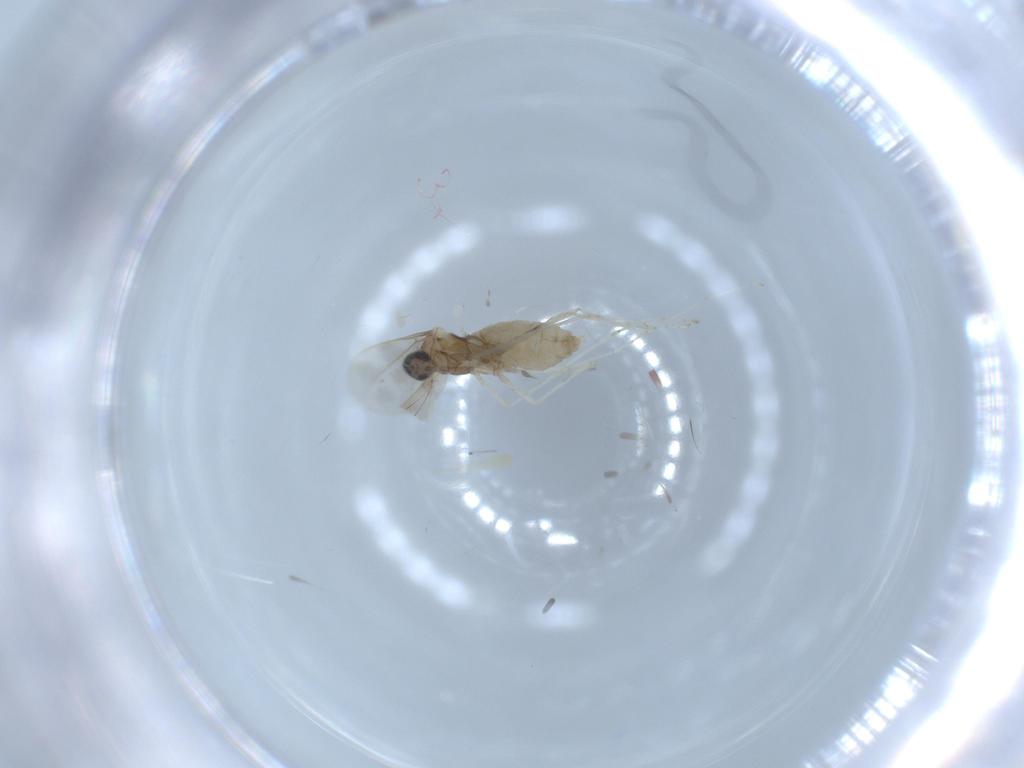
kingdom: Animalia
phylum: Arthropoda
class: Insecta
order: Diptera
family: Cecidomyiidae
